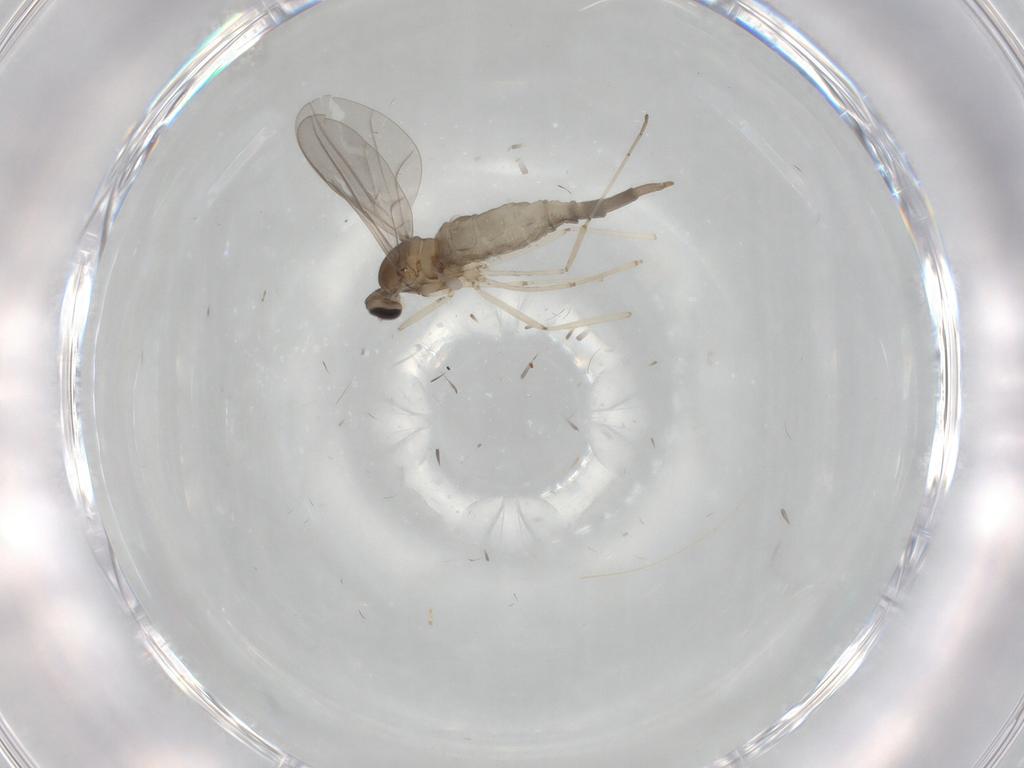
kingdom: Animalia
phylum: Arthropoda
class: Insecta
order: Diptera
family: Cecidomyiidae
